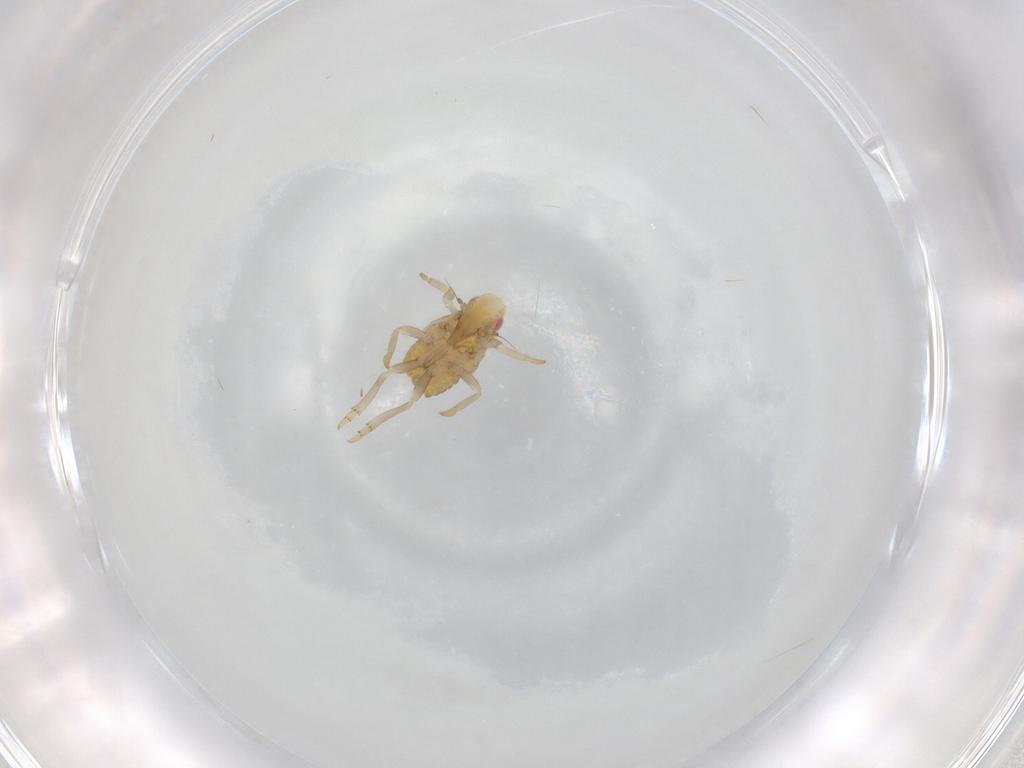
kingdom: Animalia
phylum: Arthropoda
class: Insecta
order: Hemiptera
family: Flatidae
